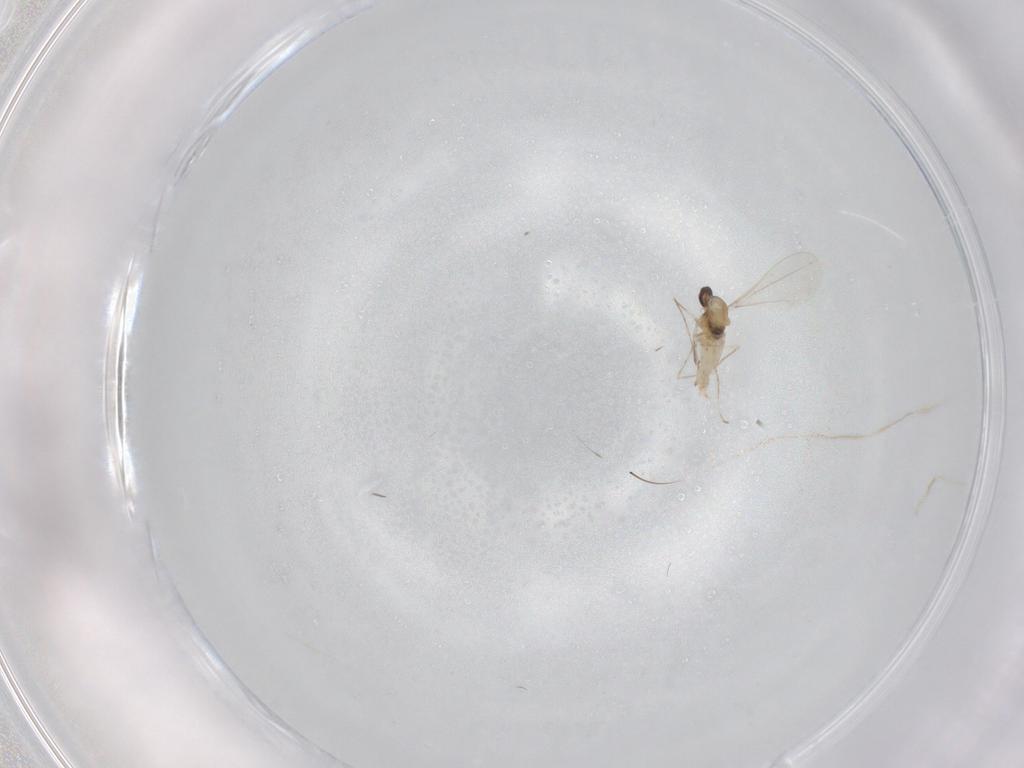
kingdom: Animalia
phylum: Arthropoda
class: Insecta
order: Diptera
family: Cecidomyiidae
